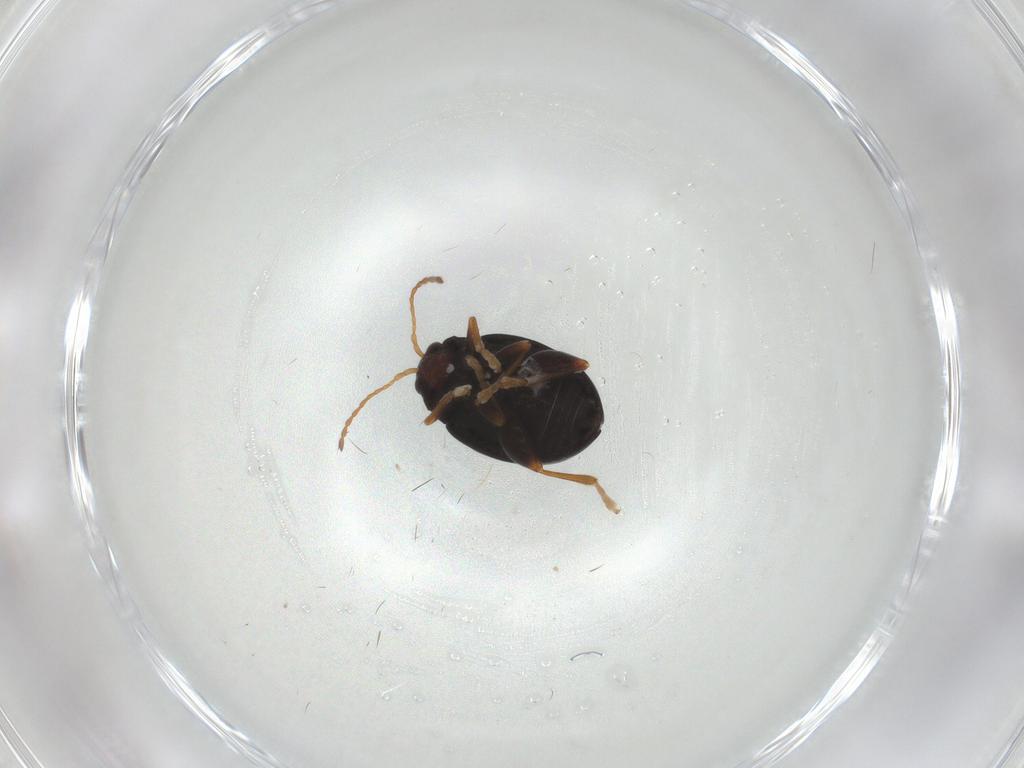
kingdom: Animalia
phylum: Arthropoda
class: Insecta
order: Coleoptera
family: Chrysomelidae
